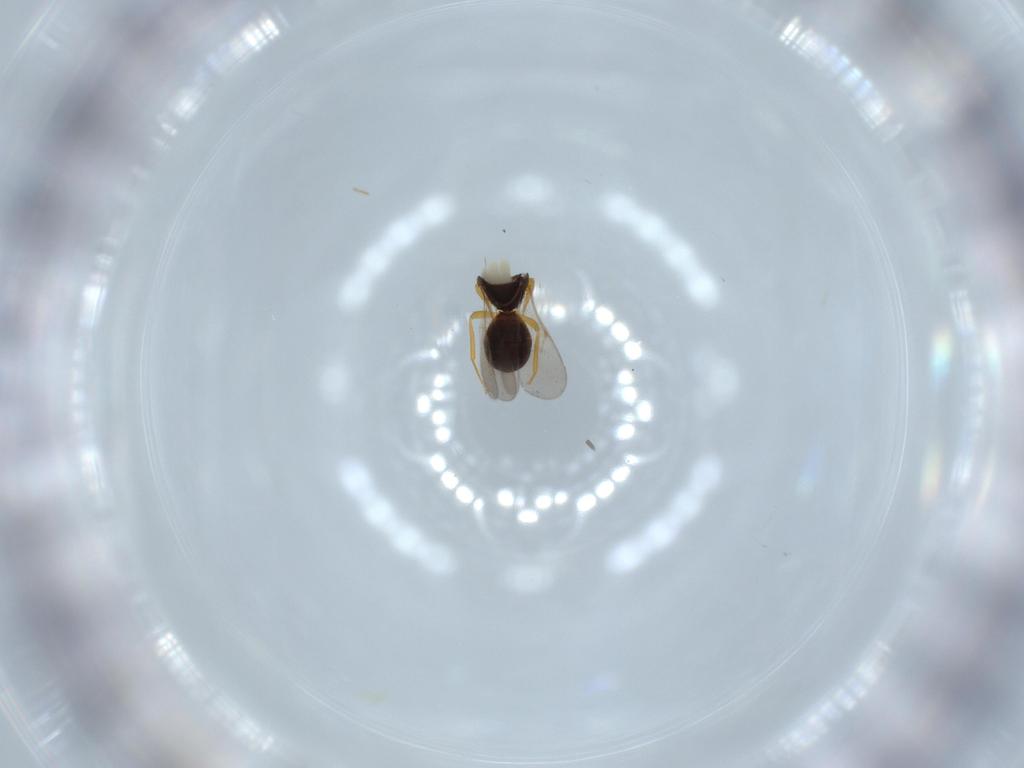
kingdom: Animalia
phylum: Arthropoda
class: Insecta
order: Hymenoptera
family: Scelionidae
